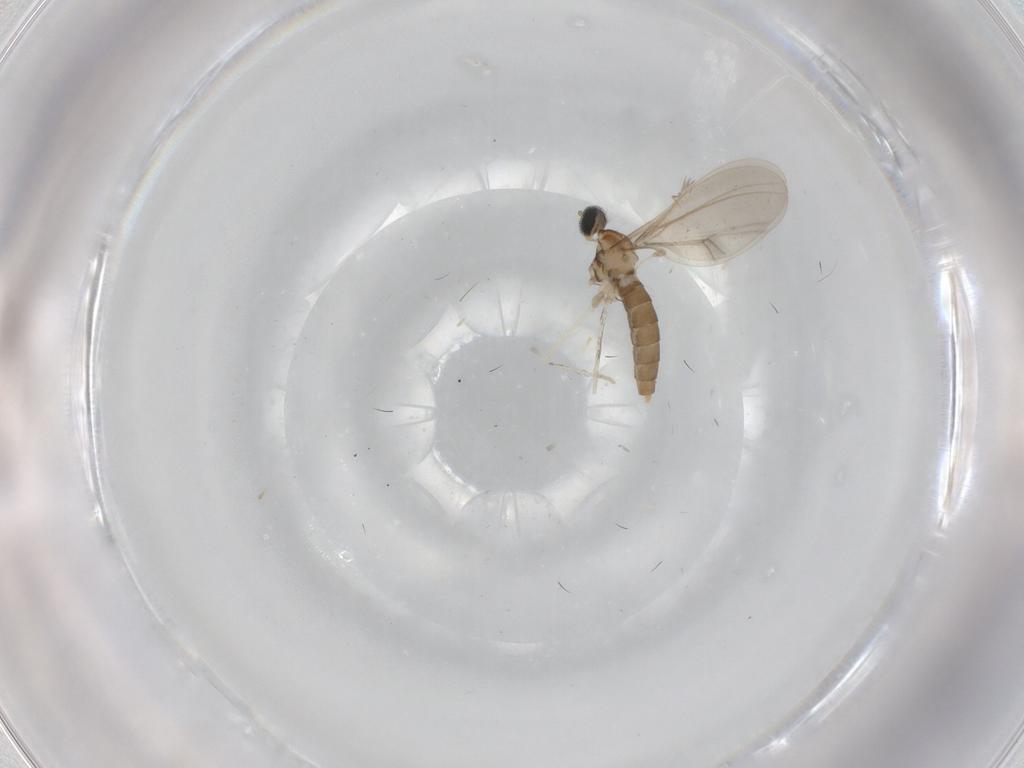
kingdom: Animalia
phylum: Arthropoda
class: Insecta
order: Diptera
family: Cecidomyiidae
